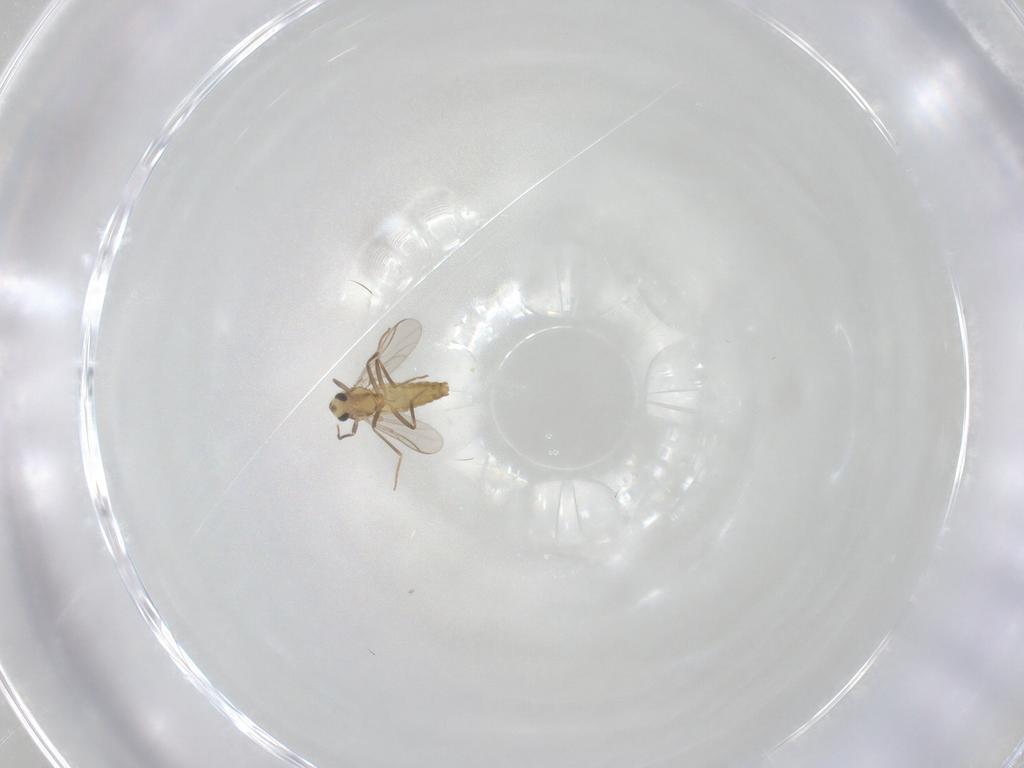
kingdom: Animalia
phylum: Arthropoda
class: Insecta
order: Diptera
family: Chironomidae
